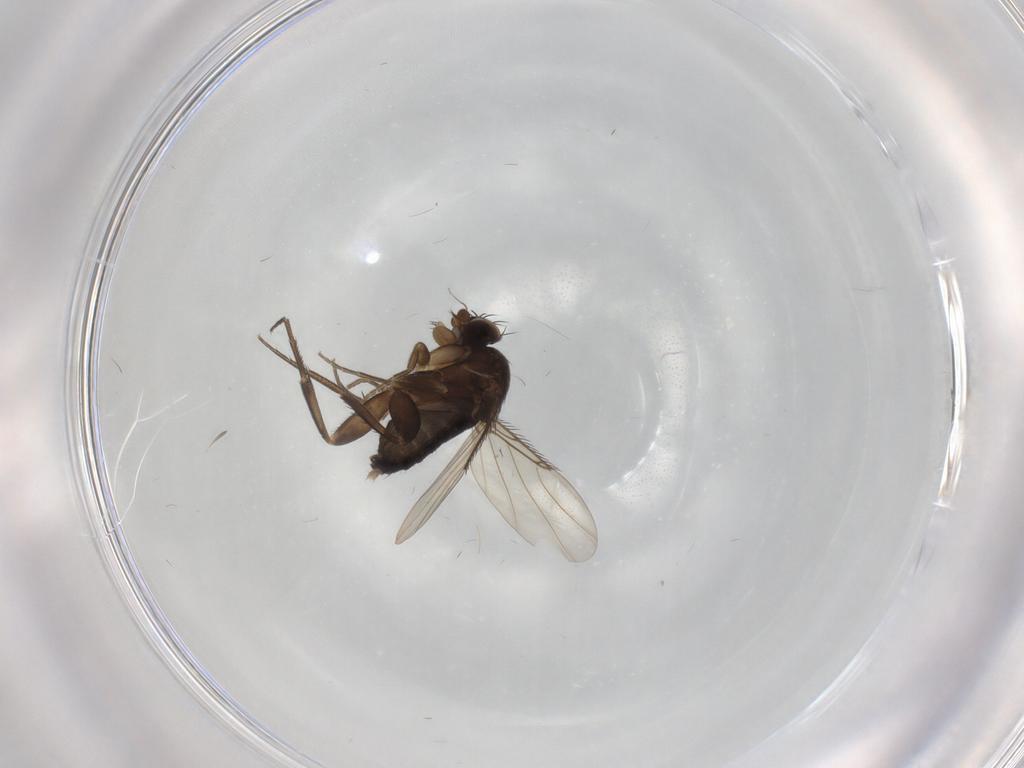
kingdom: Animalia
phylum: Arthropoda
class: Insecta
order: Diptera
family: Phoridae
